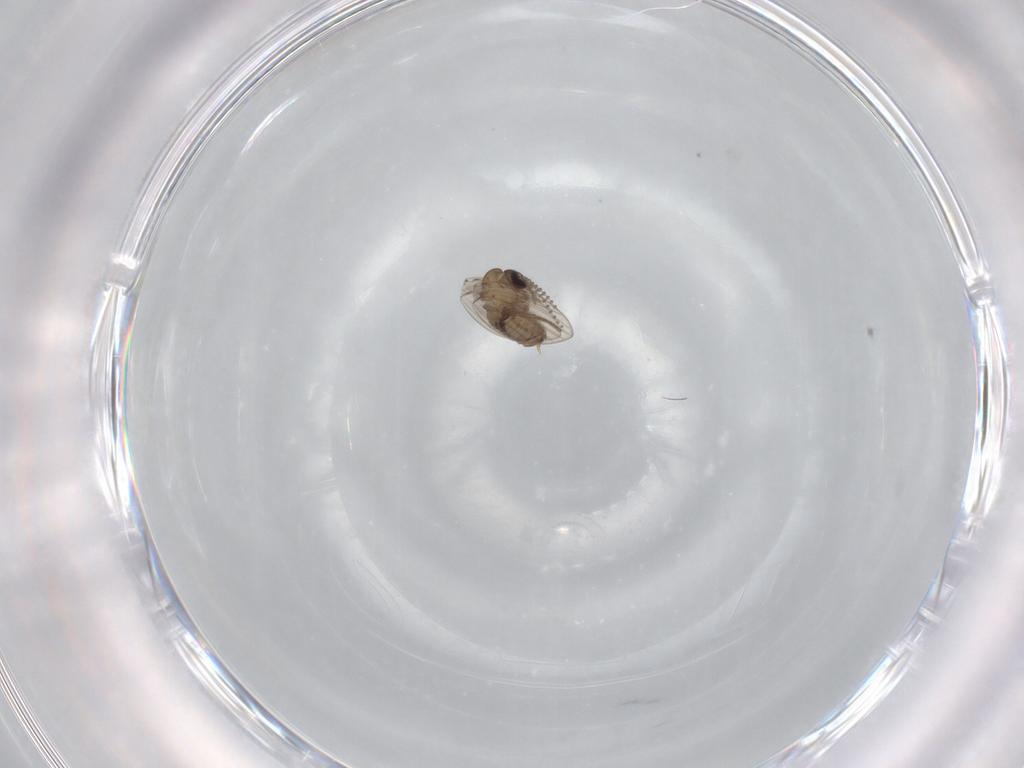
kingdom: Animalia
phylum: Arthropoda
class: Insecta
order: Diptera
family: Psychodidae
